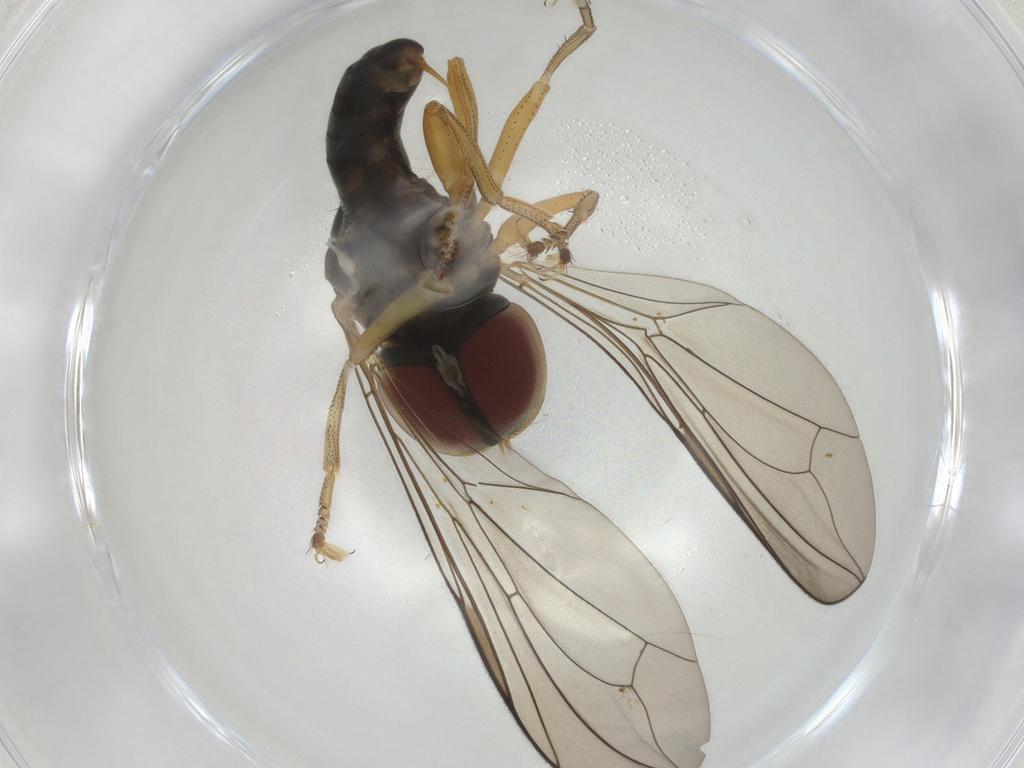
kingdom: Animalia
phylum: Arthropoda
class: Insecta
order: Diptera
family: Pipunculidae
